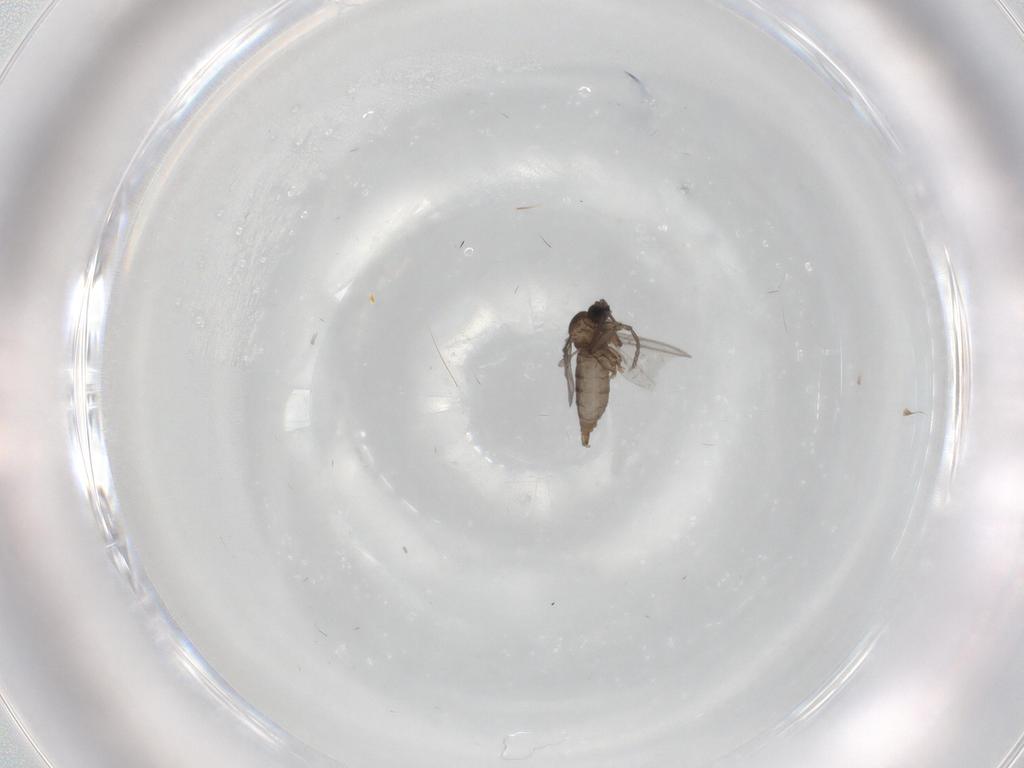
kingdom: Animalia
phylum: Arthropoda
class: Insecta
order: Diptera
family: Sciaridae
